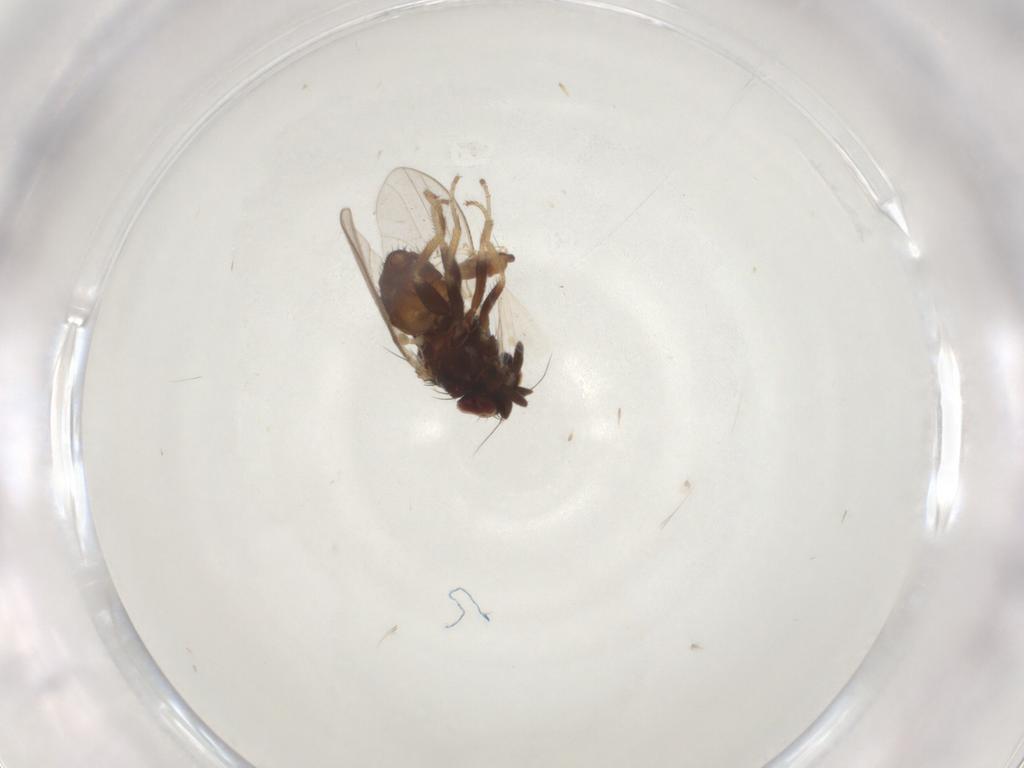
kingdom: Animalia
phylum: Arthropoda
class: Insecta
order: Diptera
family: Milichiidae
